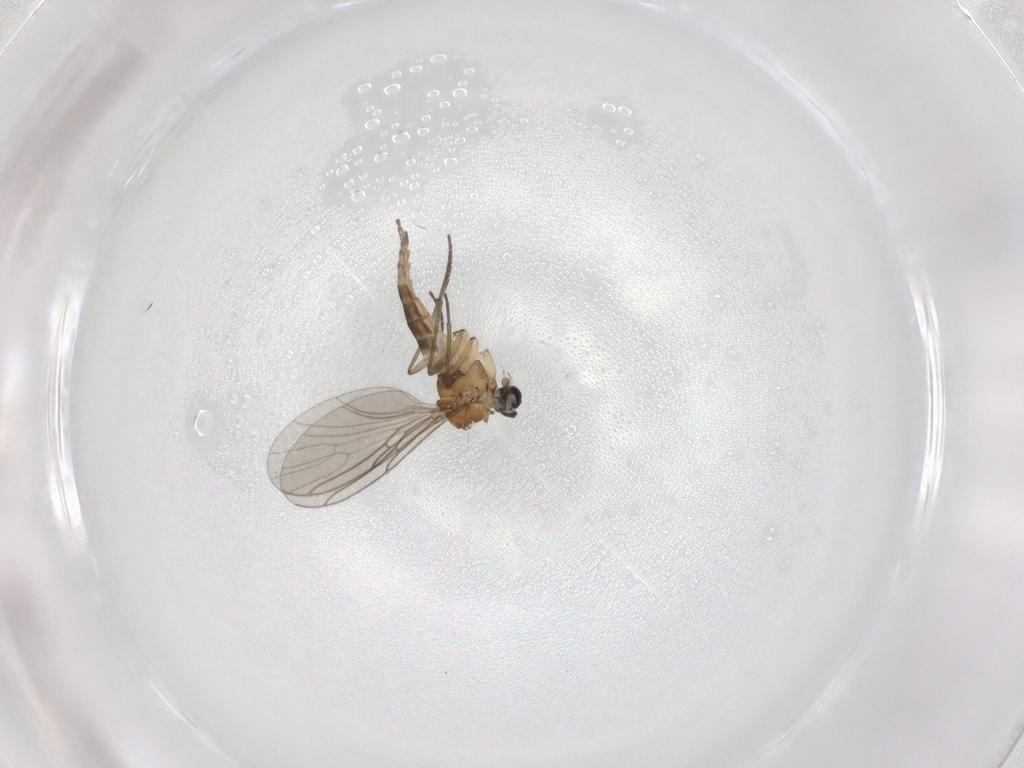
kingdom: Animalia
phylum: Arthropoda
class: Insecta
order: Diptera
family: Sciaridae
